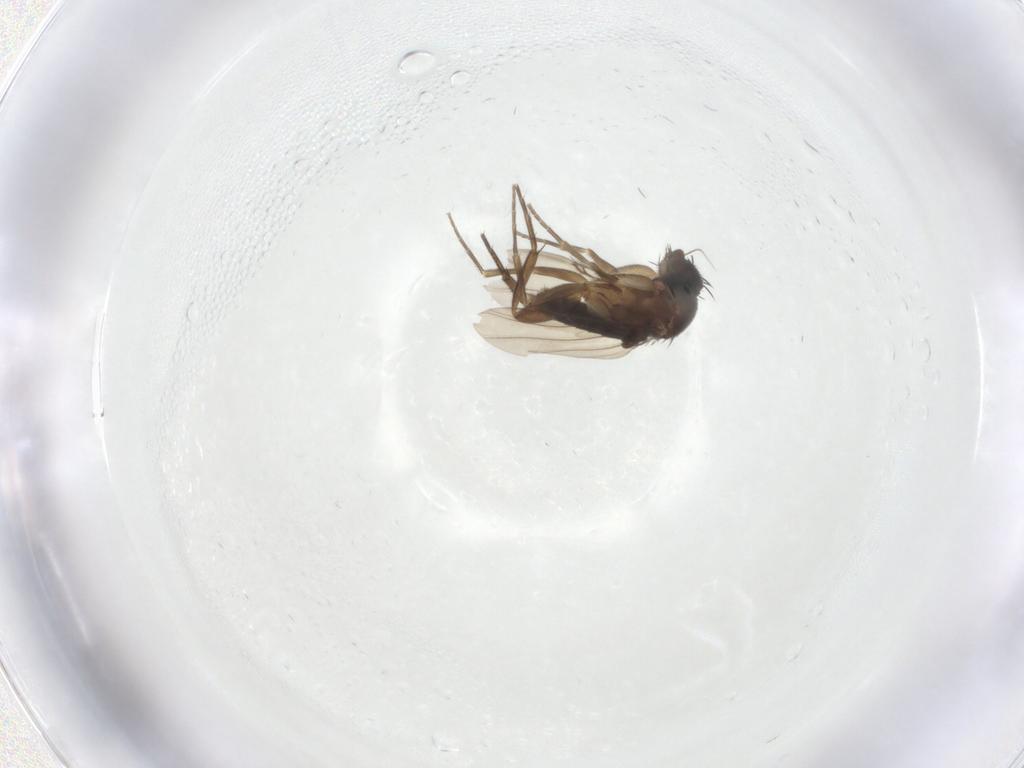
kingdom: Animalia
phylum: Arthropoda
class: Insecta
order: Diptera
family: Phoridae
